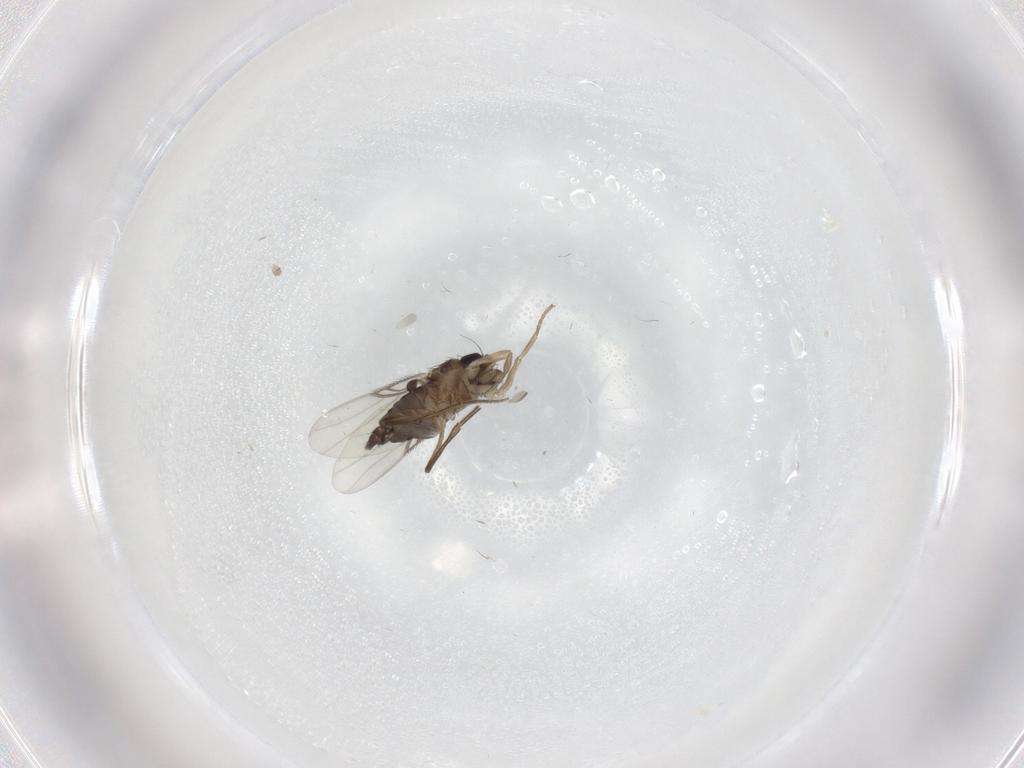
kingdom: Animalia
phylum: Arthropoda
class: Insecta
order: Diptera
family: Phoridae
